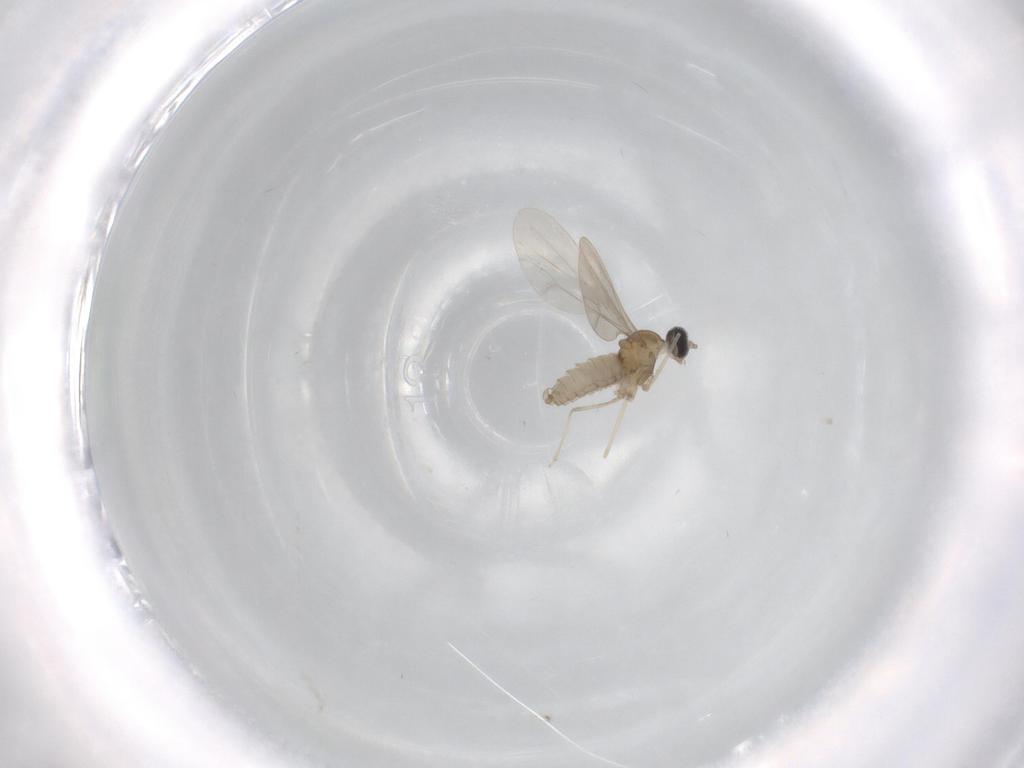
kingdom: Animalia
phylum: Arthropoda
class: Insecta
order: Diptera
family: Cecidomyiidae
